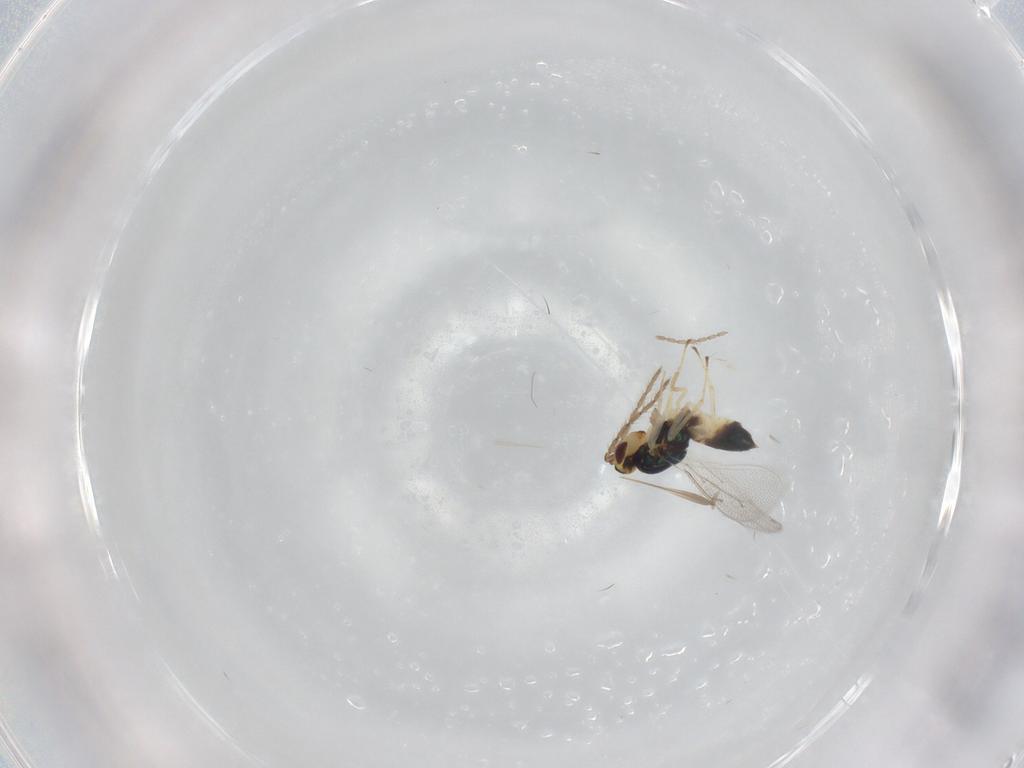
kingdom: Animalia
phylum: Arthropoda
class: Insecta
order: Hymenoptera
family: Eulophidae
